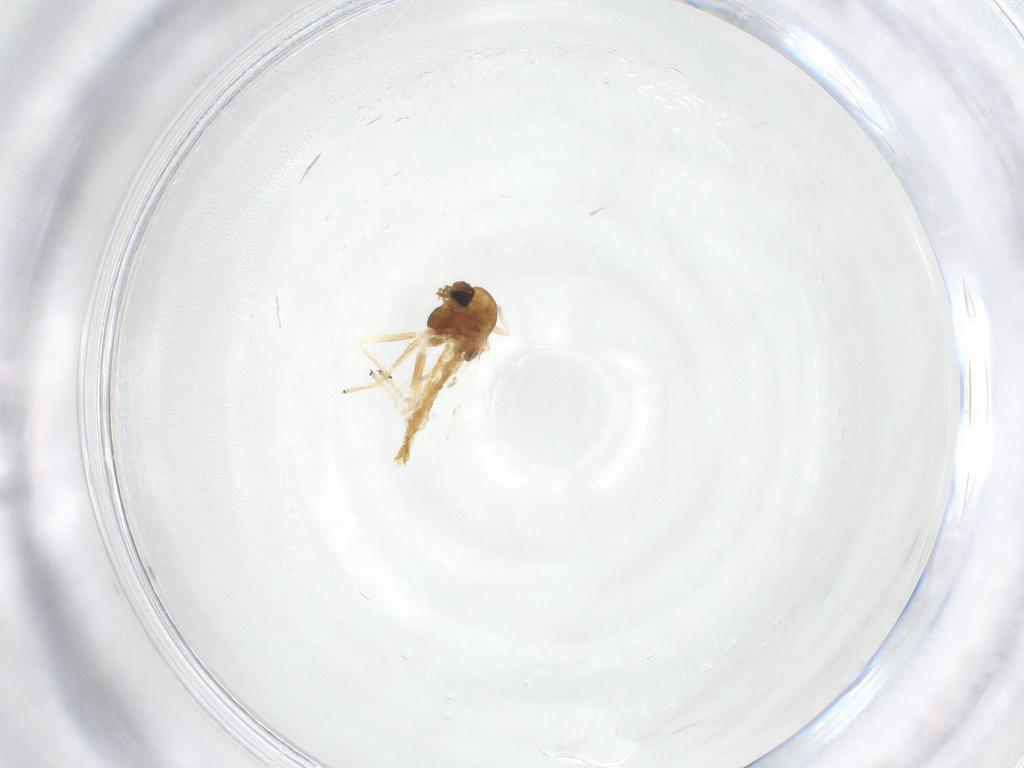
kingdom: Animalia
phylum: Arthropoda
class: Insecta
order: Diptera
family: Chironomidae
